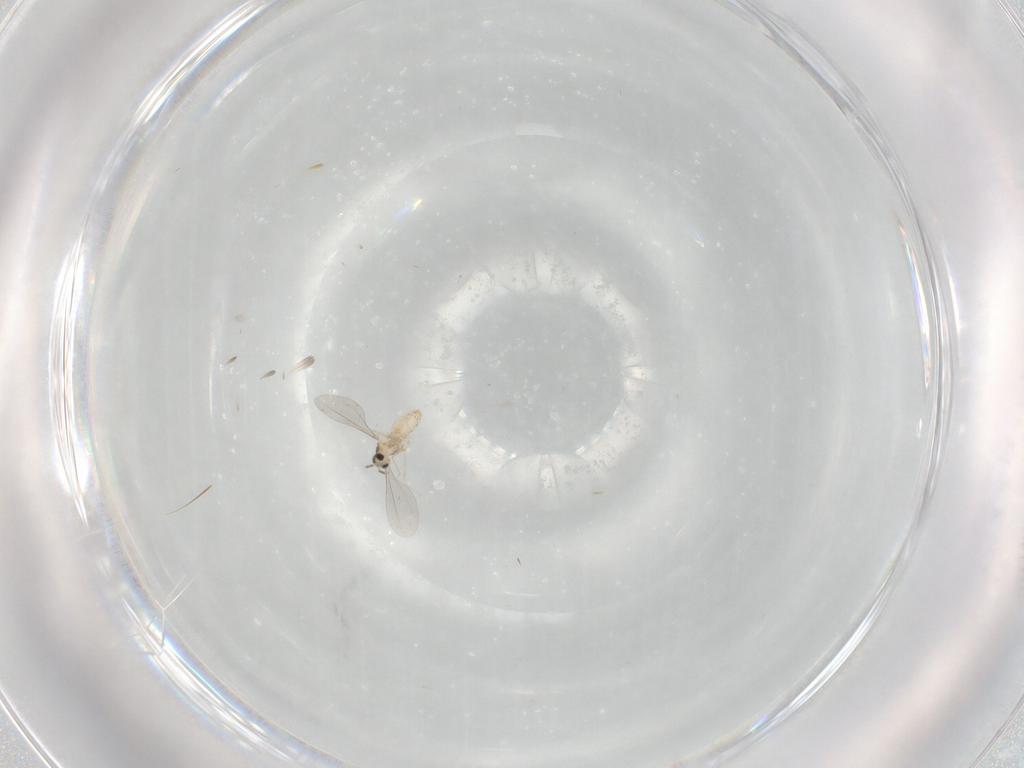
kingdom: Animalia
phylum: Arthropoda
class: Insecta
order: Diptera
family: Cecidomyiidae
